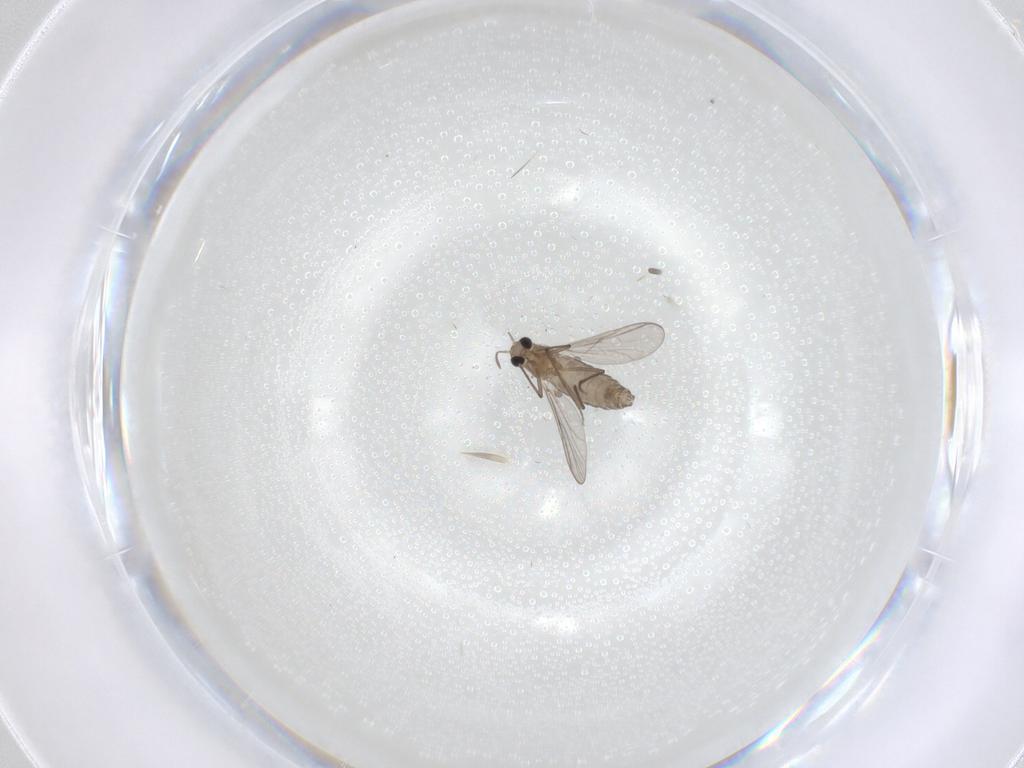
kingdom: Animalia
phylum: Arthropoda
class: Insecta
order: Diptera
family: Chironomidae
